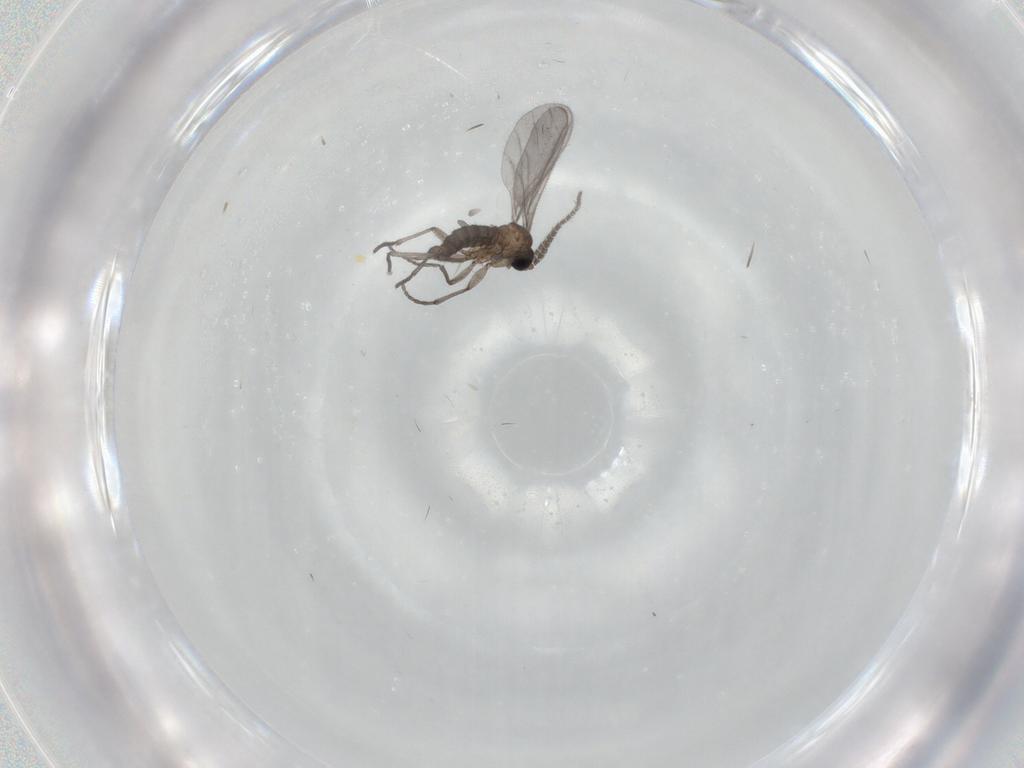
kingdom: Animalia
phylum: Arthropoda
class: Insecta
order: Diptera
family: Sciaridae
